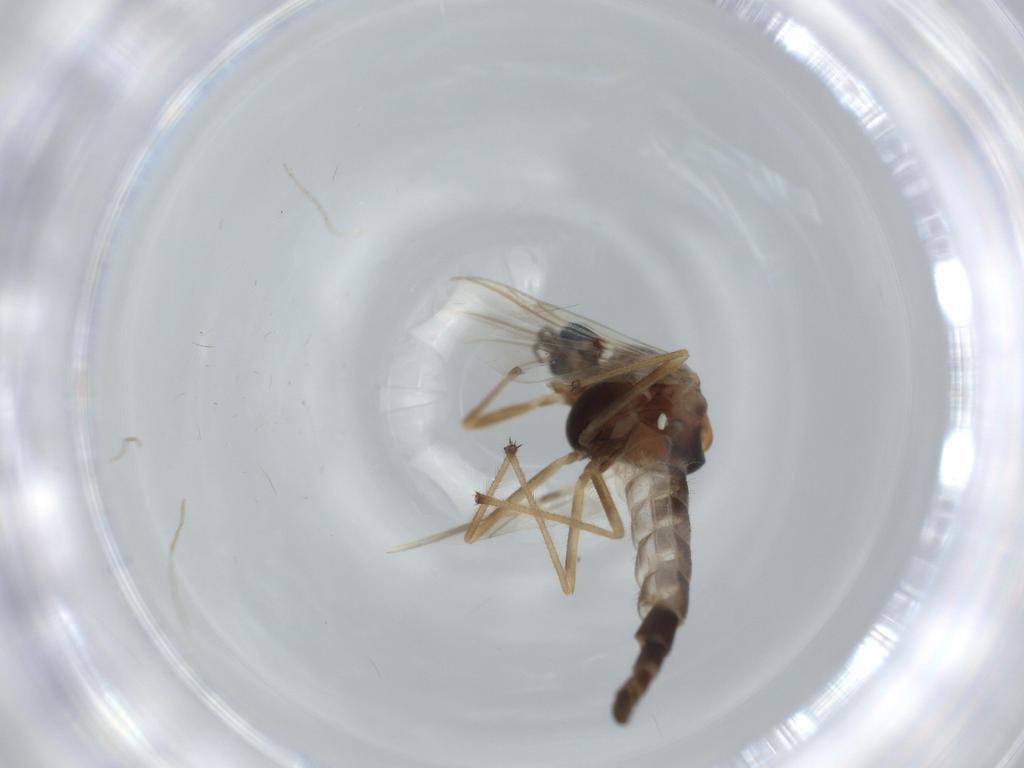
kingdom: Animalia
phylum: Arthropoda
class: Insecta
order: Diptera
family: Chironomidae
